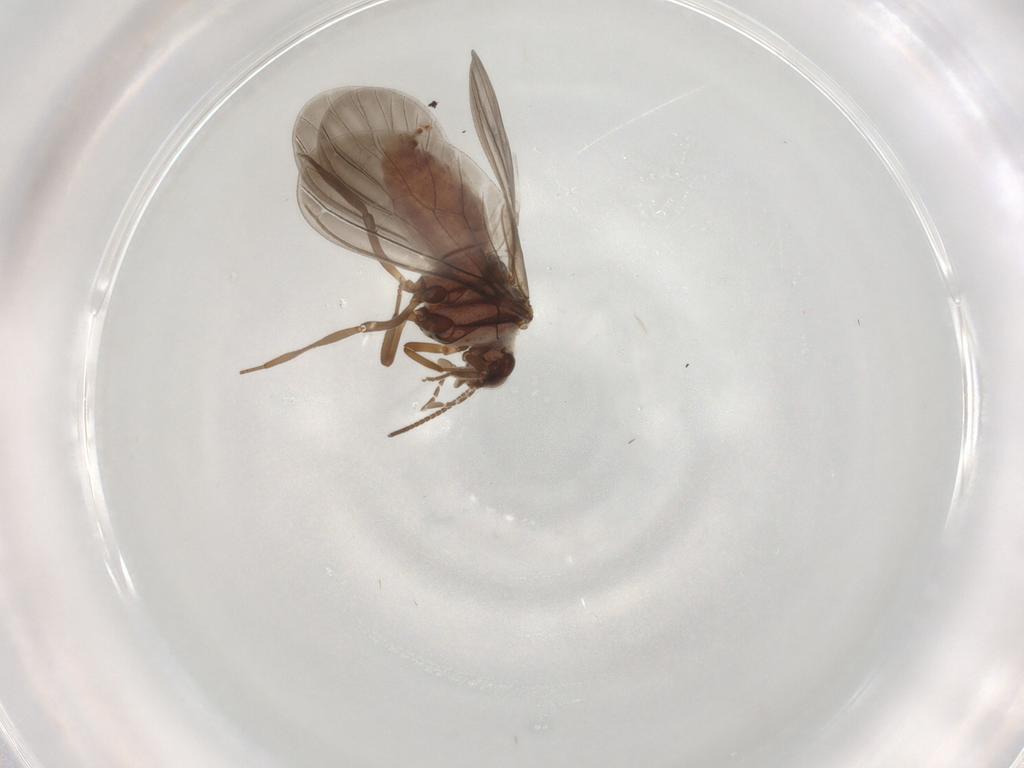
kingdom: Animalia
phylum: Arthropoda
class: Insecta
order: Neuroptera
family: Coniopterygidae
